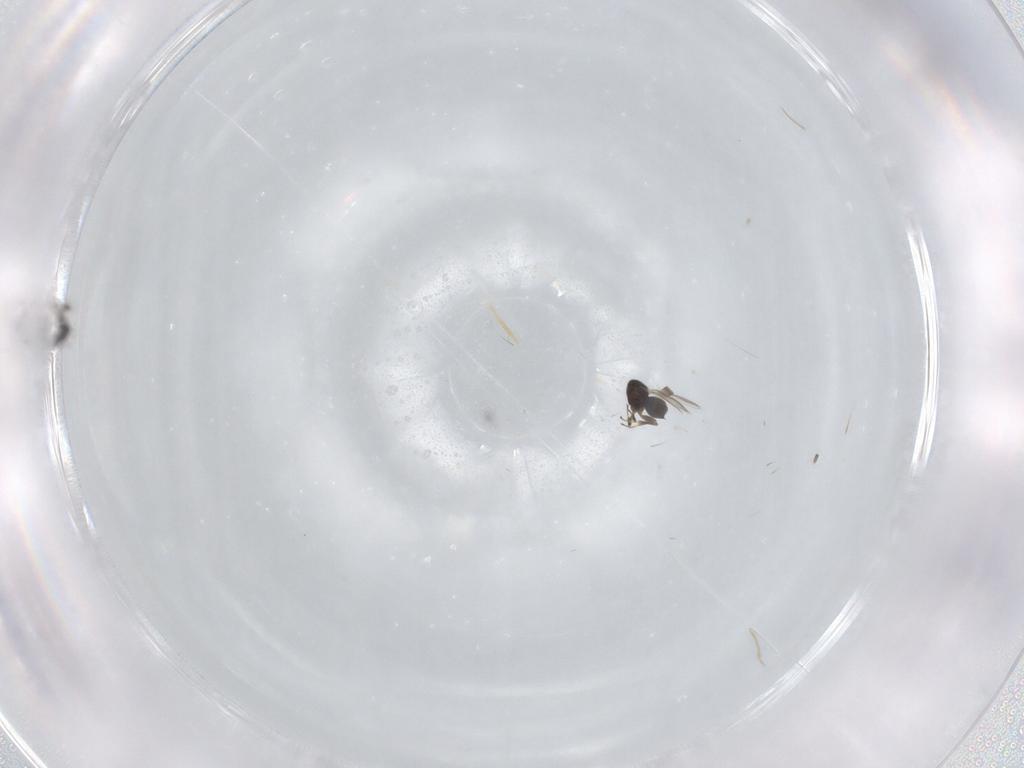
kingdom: Animalia
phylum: Arthropoda
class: Insecta
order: Hymenoptera
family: Scelionidae
